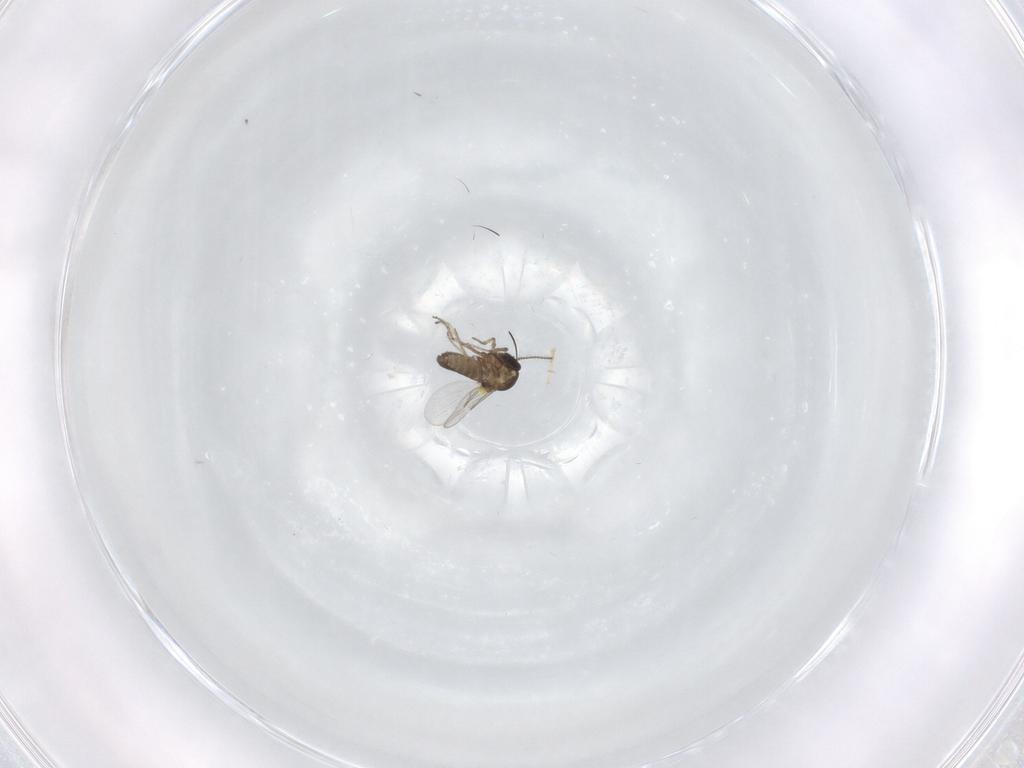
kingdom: Animalia
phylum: Arthropoda
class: Insecta
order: Diptera
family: Ceratopogonidae
